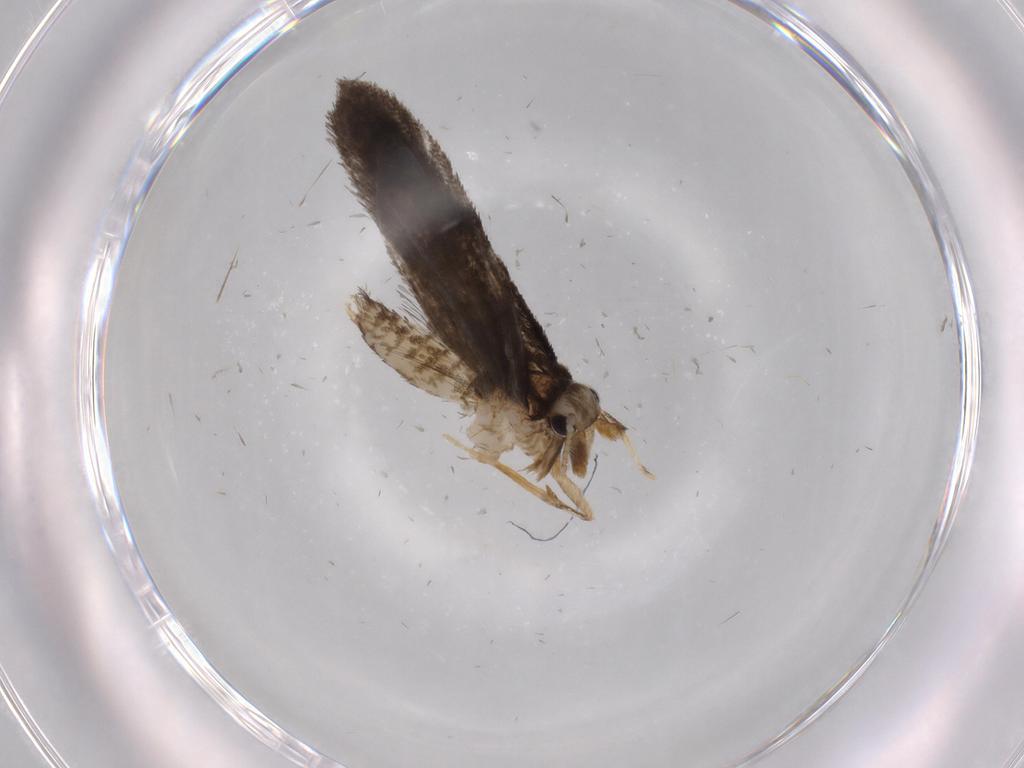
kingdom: Animalia
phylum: Arthropoda
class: Insecta
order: Lepidoptera
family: Psychidae
